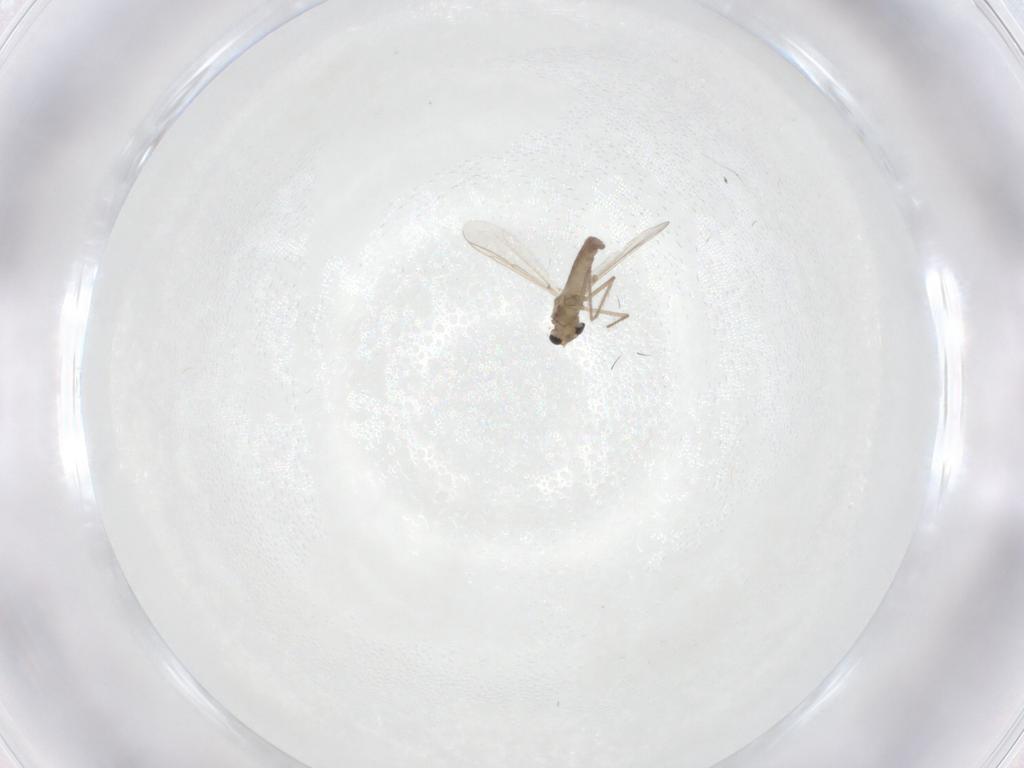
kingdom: Animalia
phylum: Arthropoda
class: Insecta
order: Diptera
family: Chironomidae
